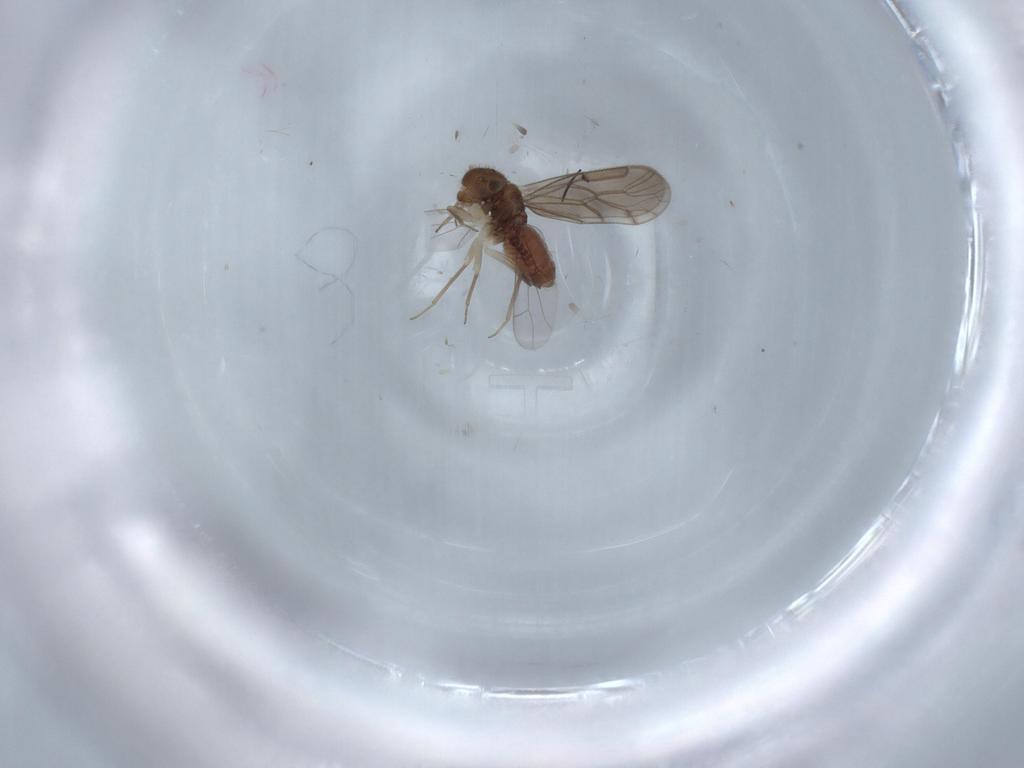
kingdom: Animalia
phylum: Arthropoda
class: Insecta
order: Psocodea
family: Ectopsocidae
